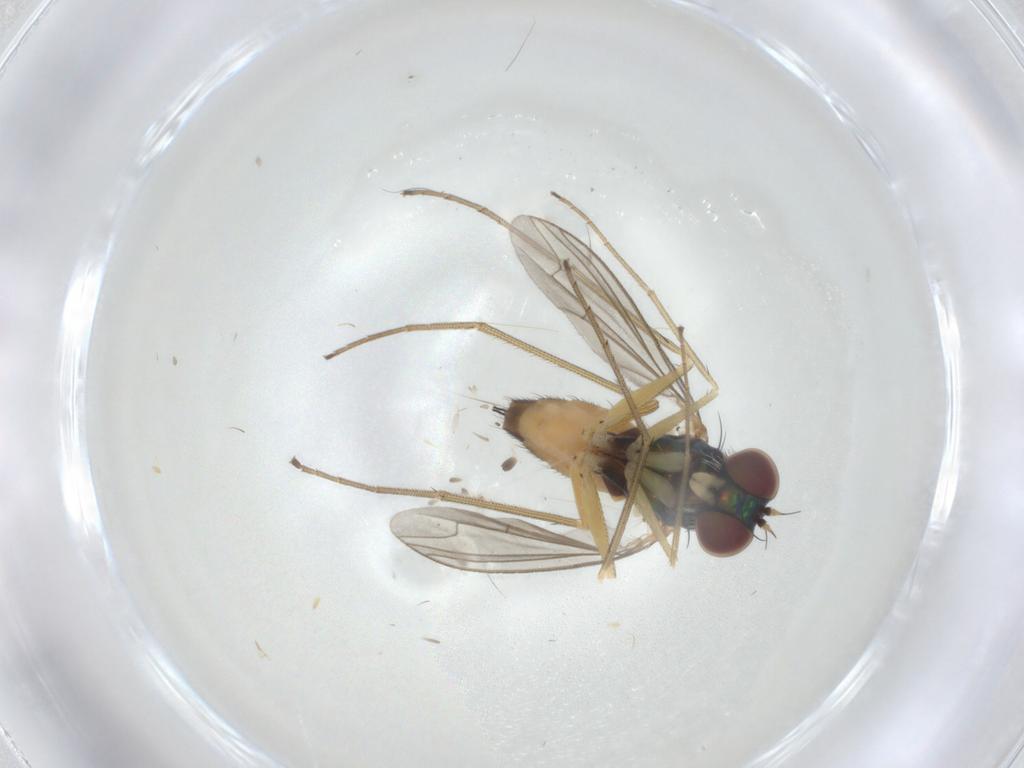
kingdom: Animalia
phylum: Arthropoda
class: Insecta
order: Diptera
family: Dolichopodidae
